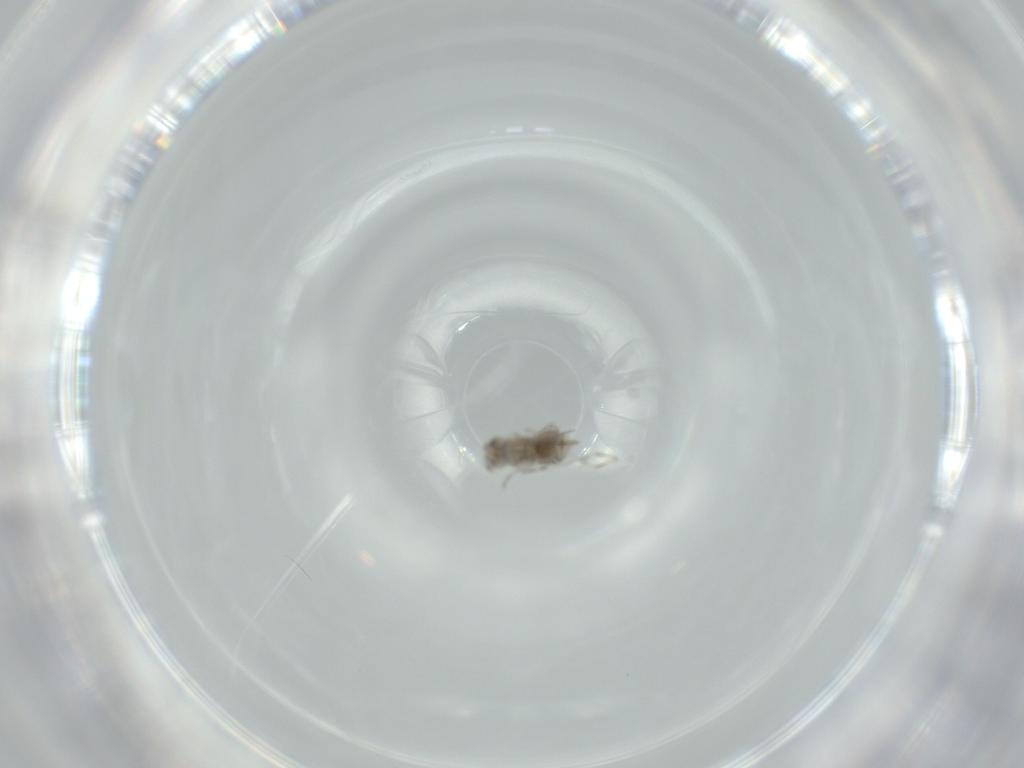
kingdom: Animalia
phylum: Arthropoda
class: Insecta
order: Hymenoptera
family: Aphelinidae
